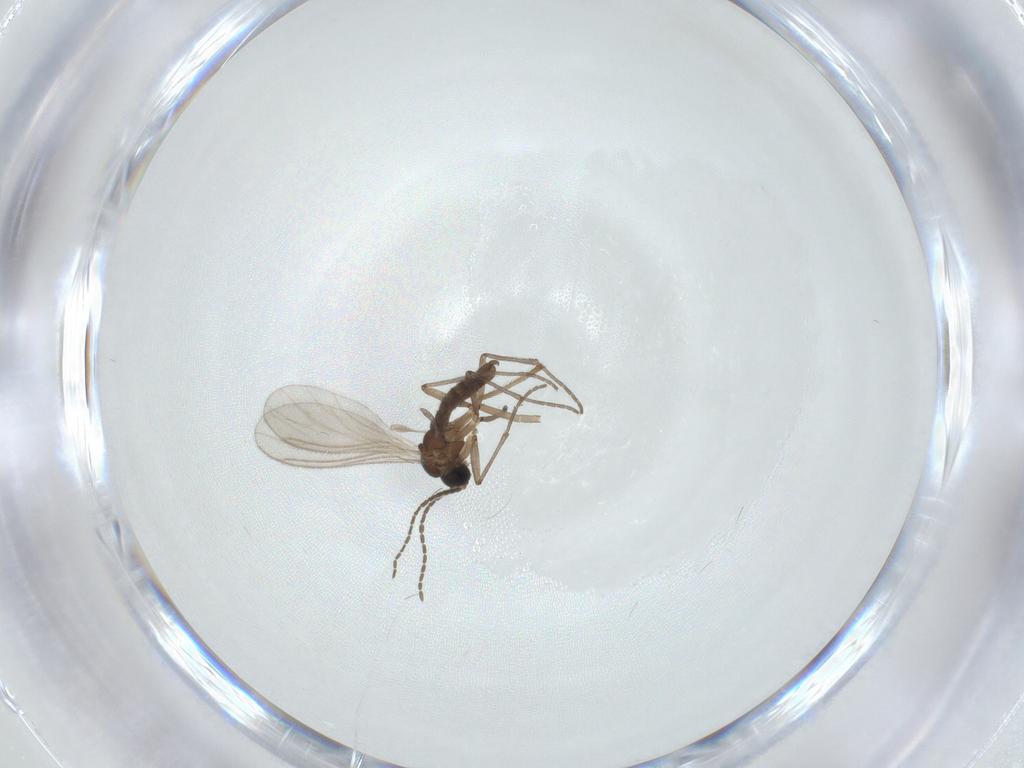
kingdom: Animalia
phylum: Arthropoda
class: Insecta
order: Diptera
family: Sciaridae
